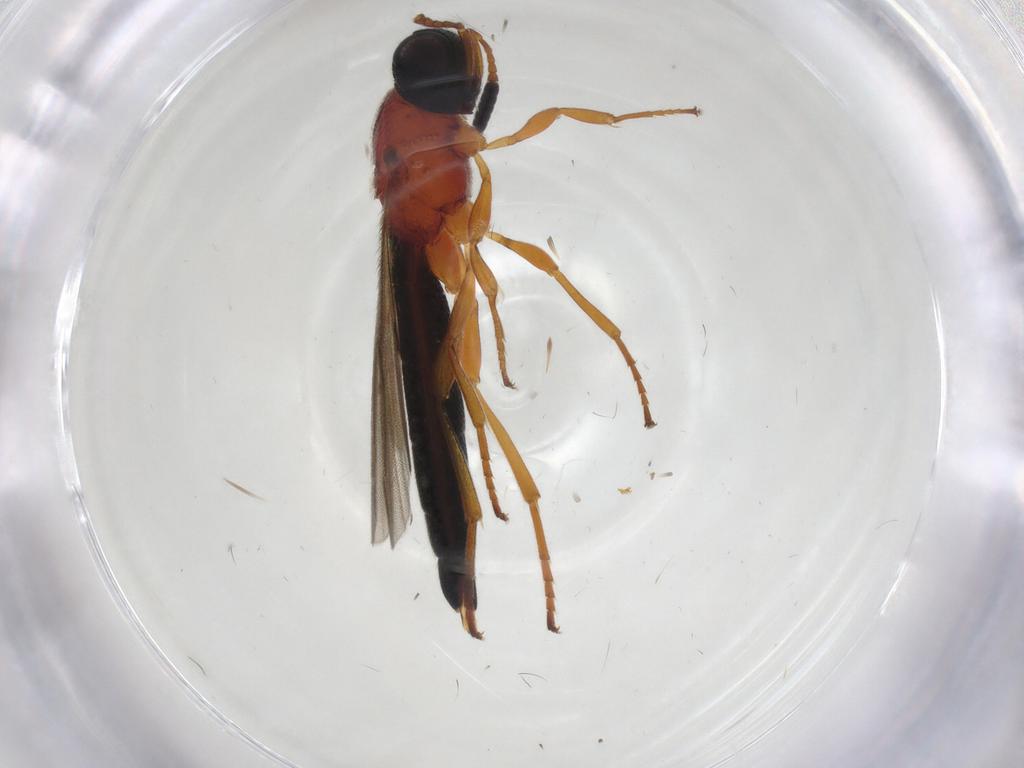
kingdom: Animalia
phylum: Arthropoda
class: Insecta
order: Hymenoptera
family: Scelionidae
